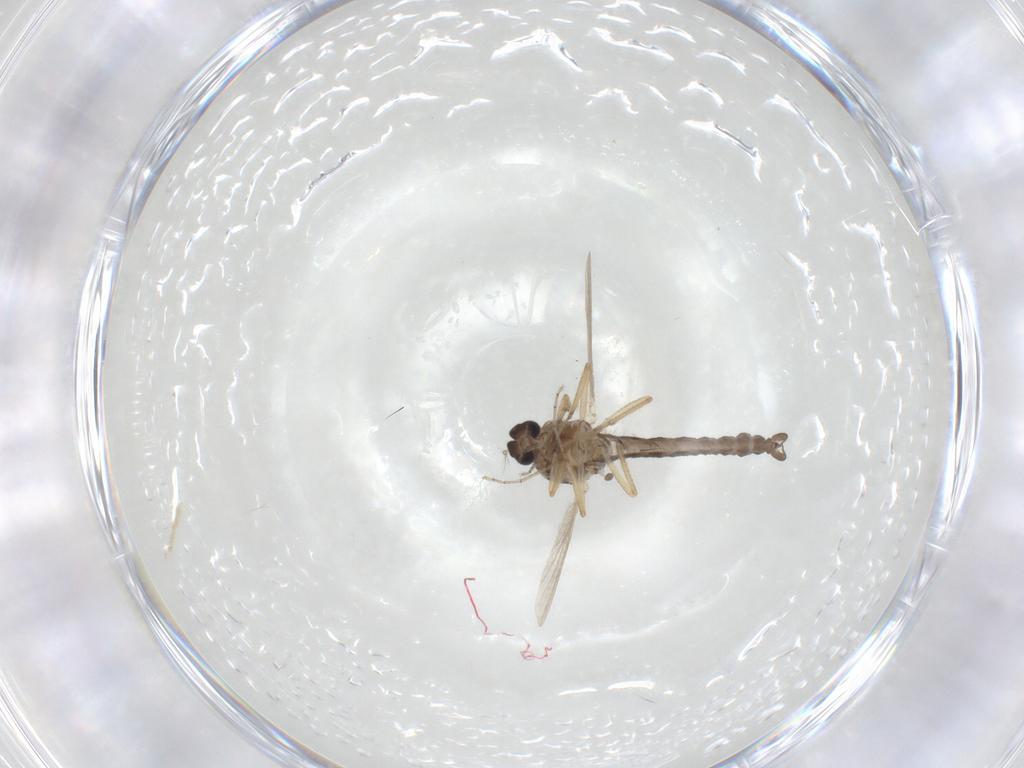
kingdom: Animalia
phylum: Arthropoda
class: Insecta
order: Diptera
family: Ceratopogonidae
